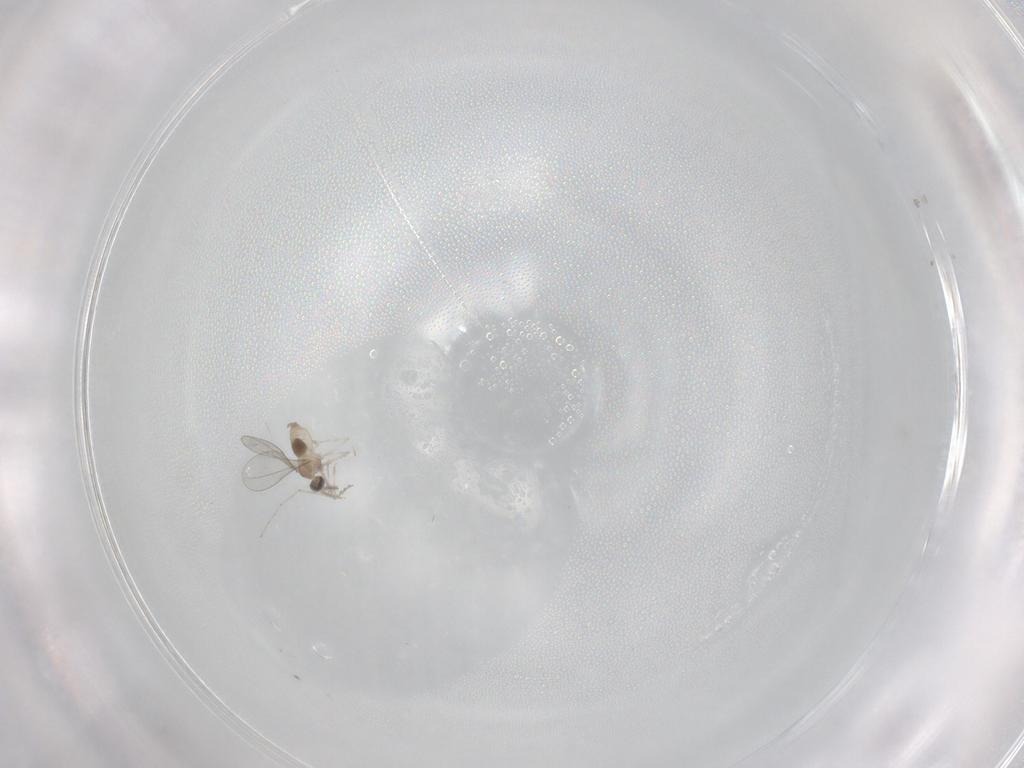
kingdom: Animalia
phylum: Arthropoda
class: Insecta
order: Diptera
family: Cecidomyiidae
